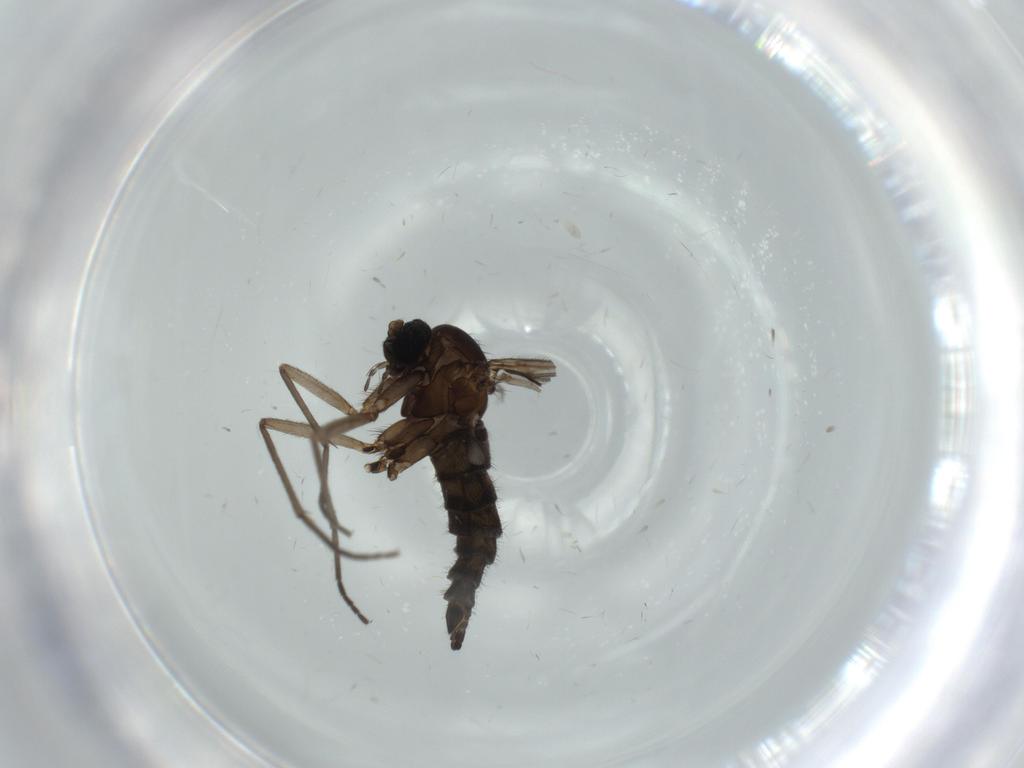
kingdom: Animalia
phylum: Arthropoda
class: Insecta
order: Diptera
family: Sciaridae
